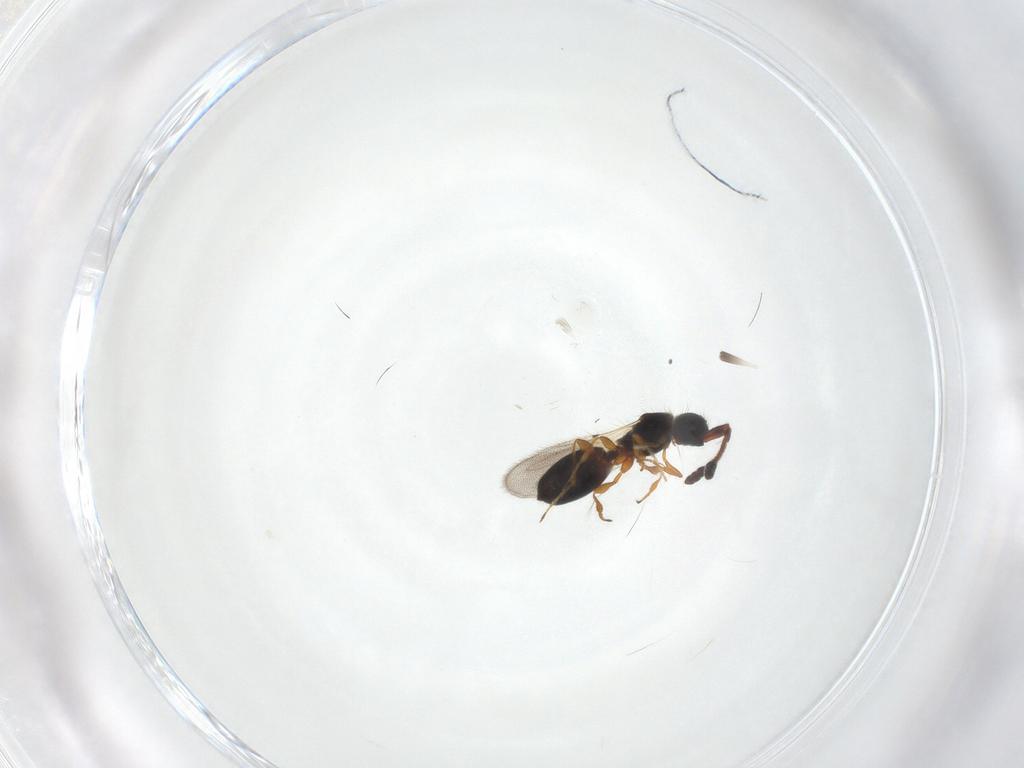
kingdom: Animalia
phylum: Arthropoda
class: Insecta
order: Hymenoptera
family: Diapriidae
